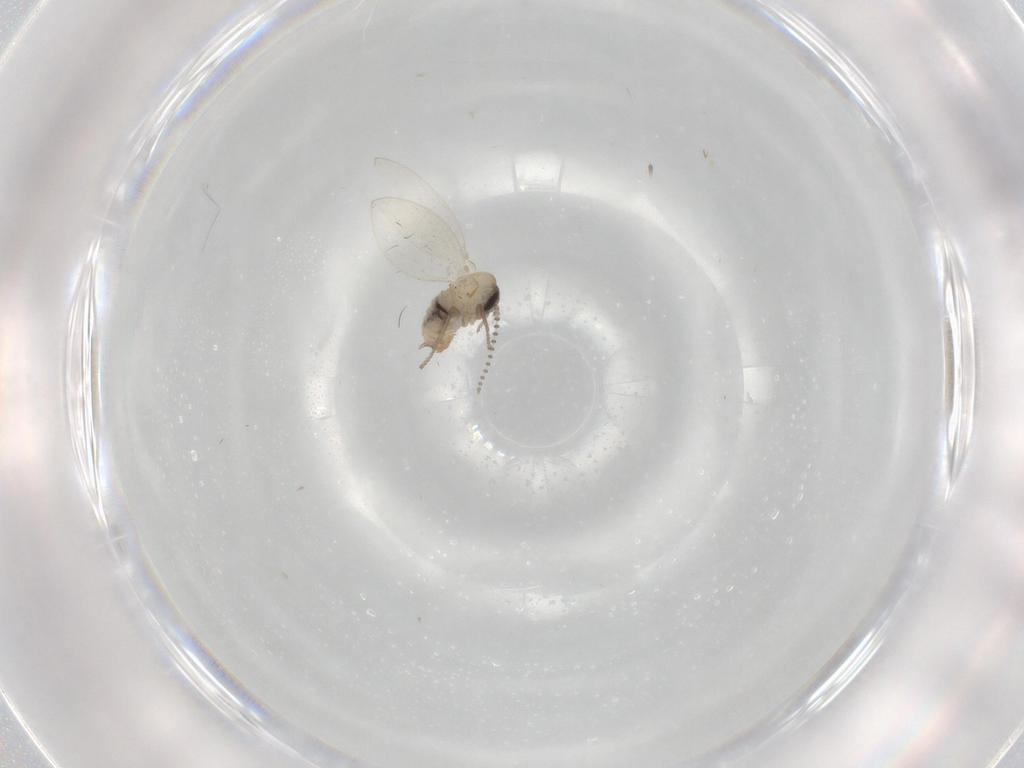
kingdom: Animalia
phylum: Arthropoda
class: Insecta
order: Diptera
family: Psychodidae
